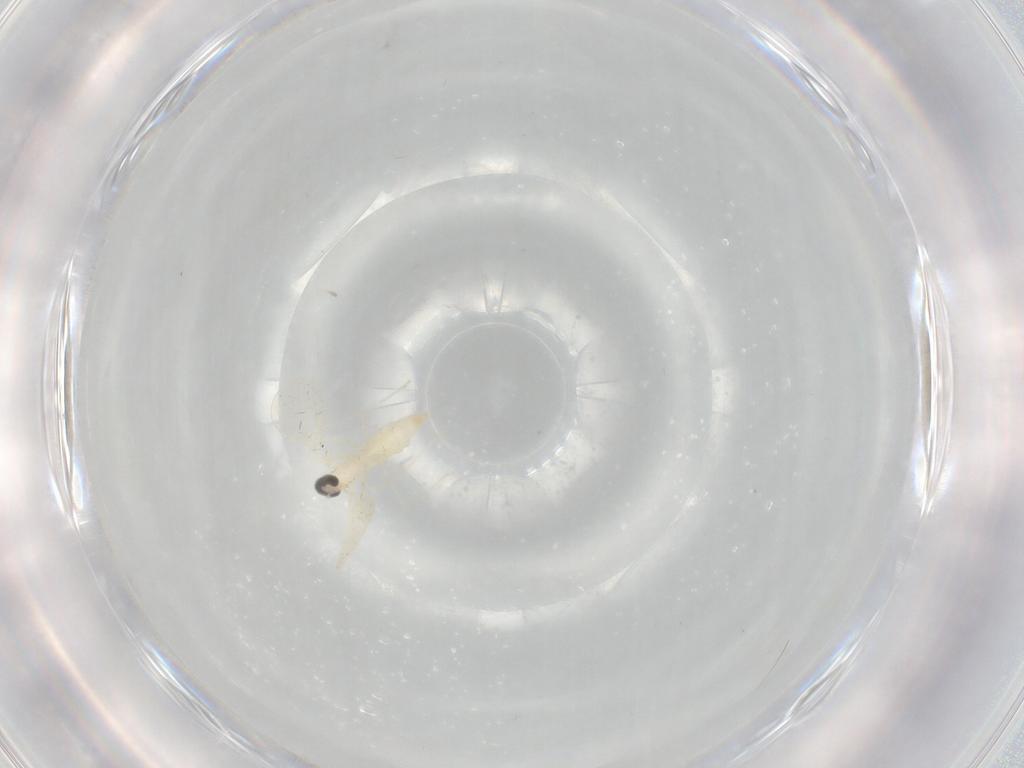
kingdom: Animalia
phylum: Arthropoda
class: Insecta
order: Diptera
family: Cecidomyiidae
